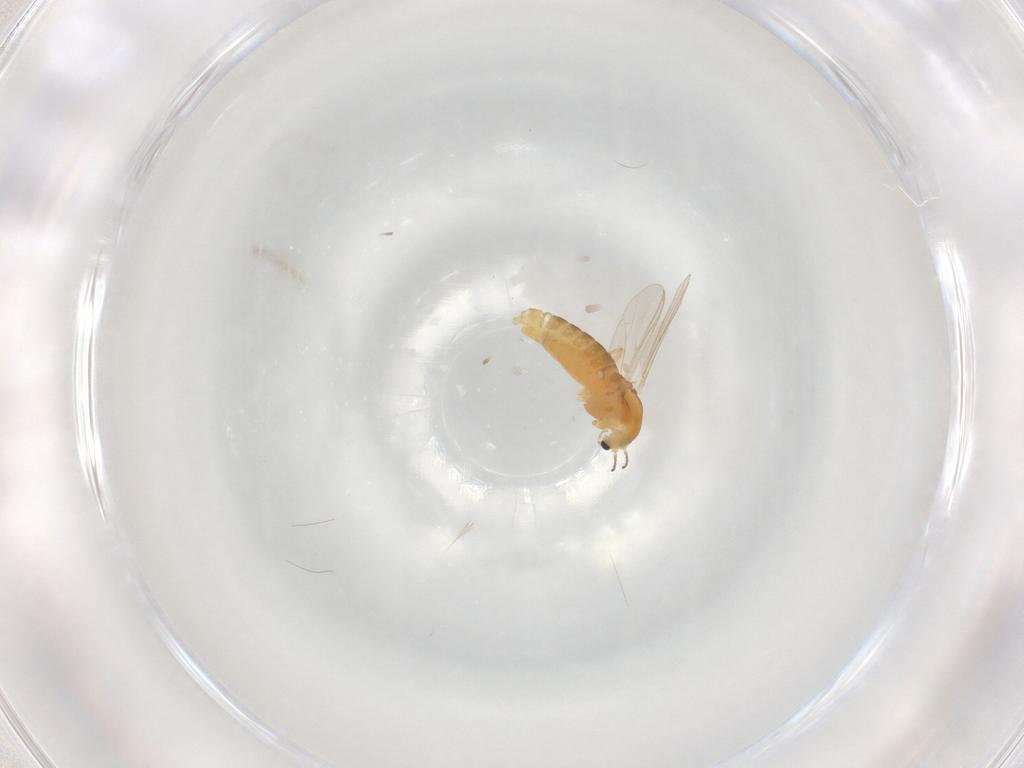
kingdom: Animalia
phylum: Arthropoda
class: Insecta
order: Diptera
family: Chironomidae
